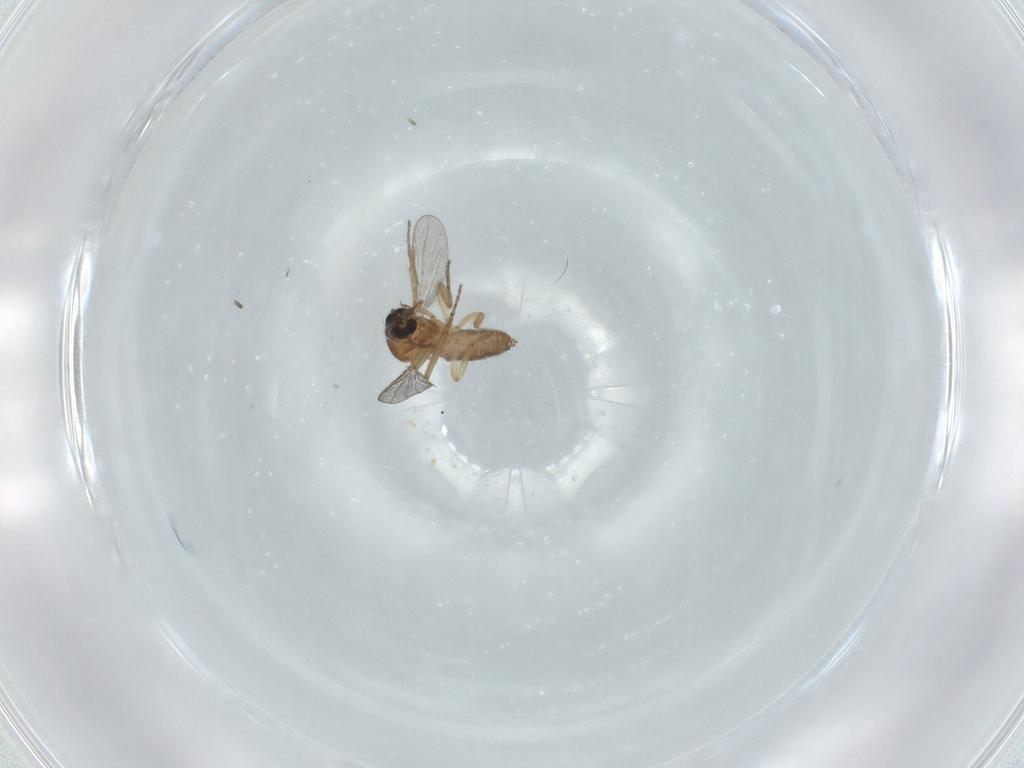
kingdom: Animalia
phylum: Arthropoda
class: Insecta
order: Diptera
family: Ceratopogonidae
